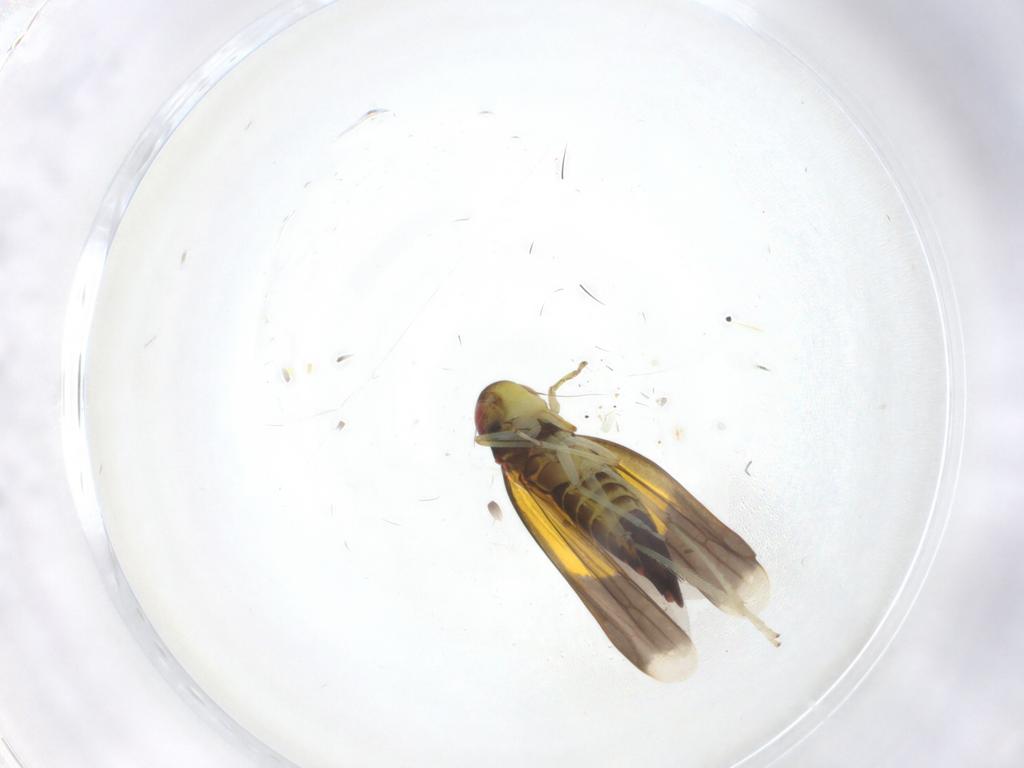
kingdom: Animalia
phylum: Arthropoda
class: Insecta
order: Hemiptera
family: Cicadellidae
